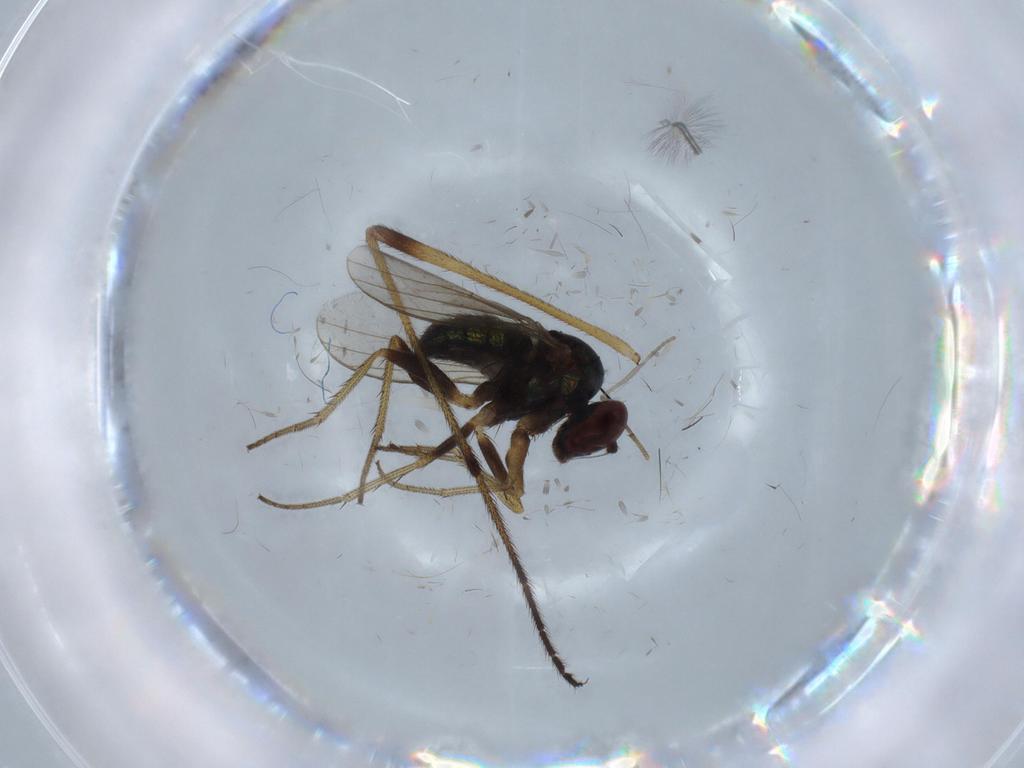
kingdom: Animalia
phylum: Arthropoda
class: Insecta
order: Diptera
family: Limoniidae
